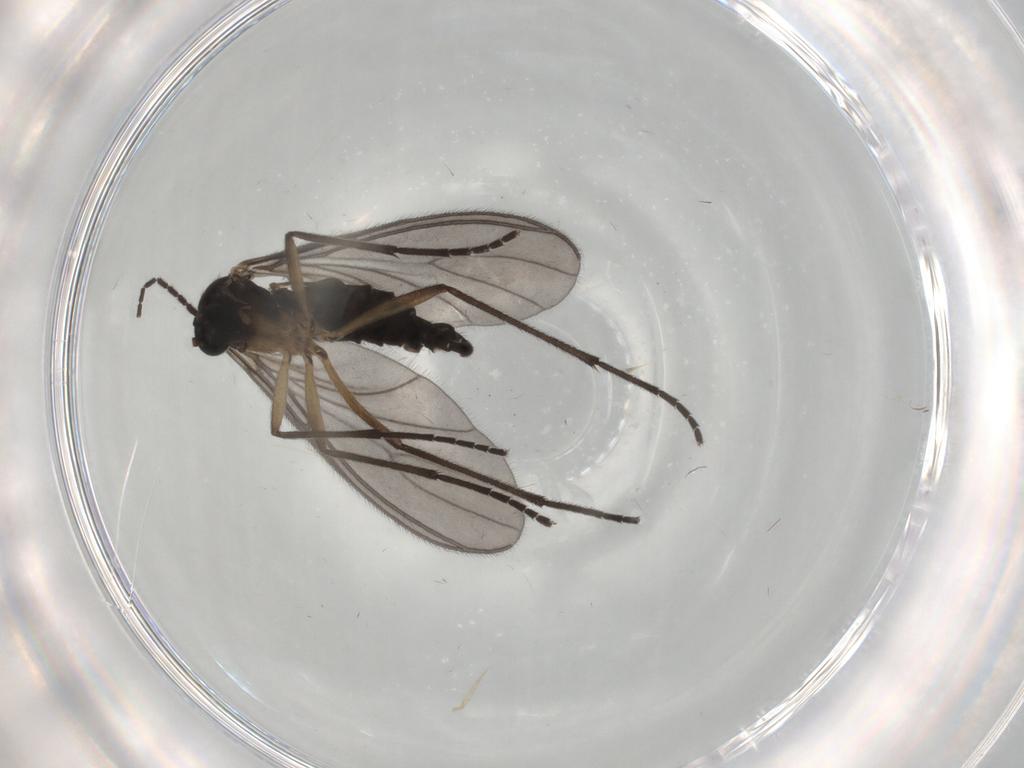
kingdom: Animalia
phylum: Arthropoda
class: Insecta
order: Diptera
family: Sciaridae
